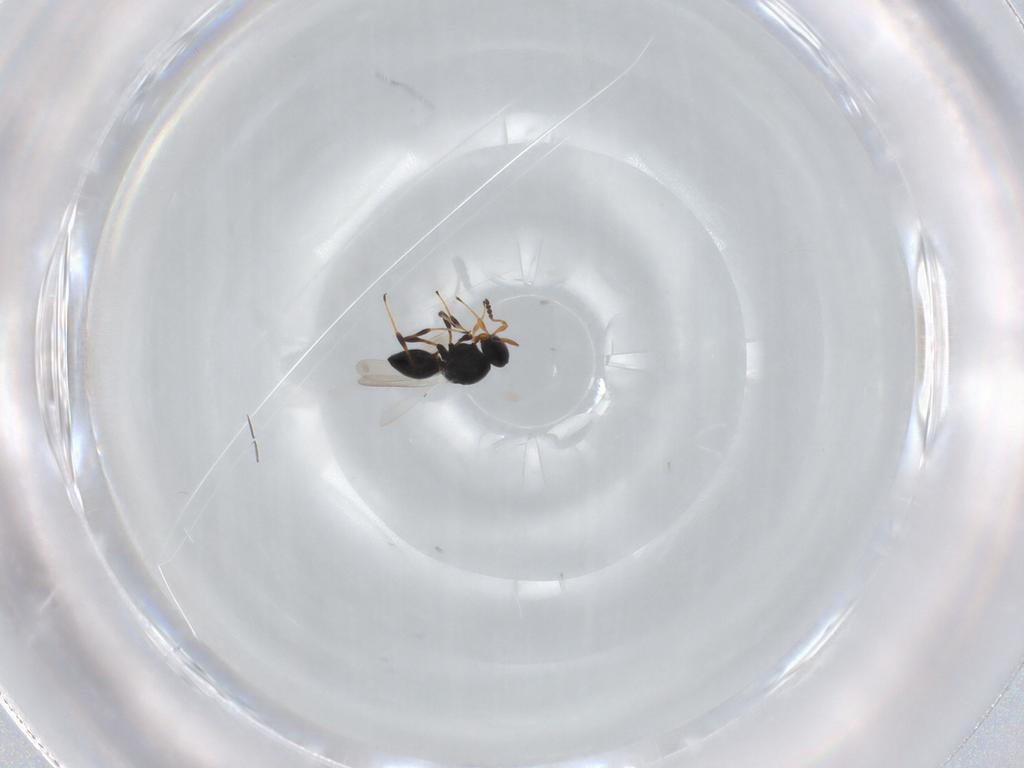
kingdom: Animalia
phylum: Arthropoda
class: Insecta
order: Hymenoptera
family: Platygastridae
